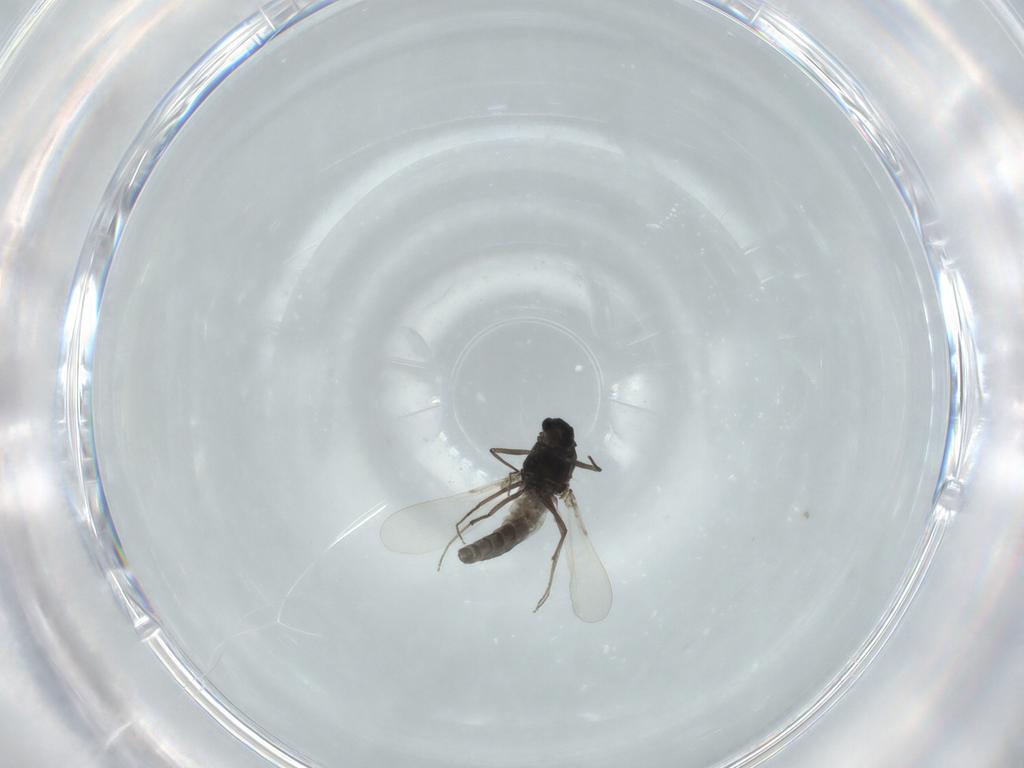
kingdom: Animalia
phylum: Arthropoda
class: Insecta
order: Diptera
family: Chironomidae
